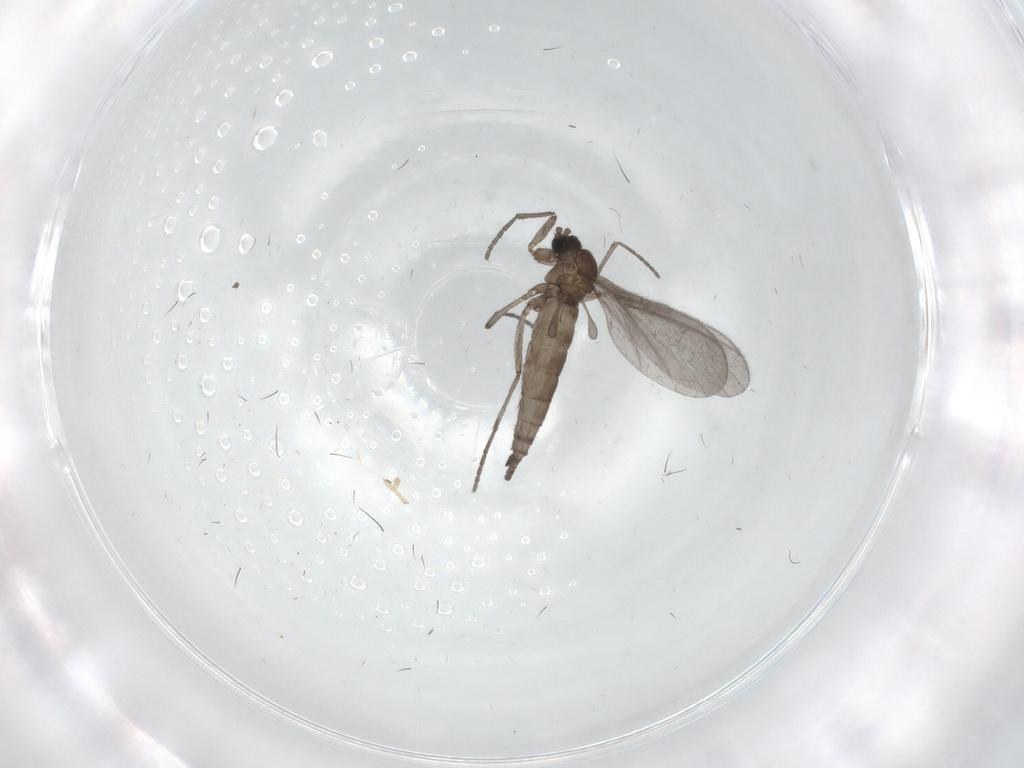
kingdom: Animalia
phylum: Arthropoda
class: Insecta
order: Diptera
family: Sciaridae
